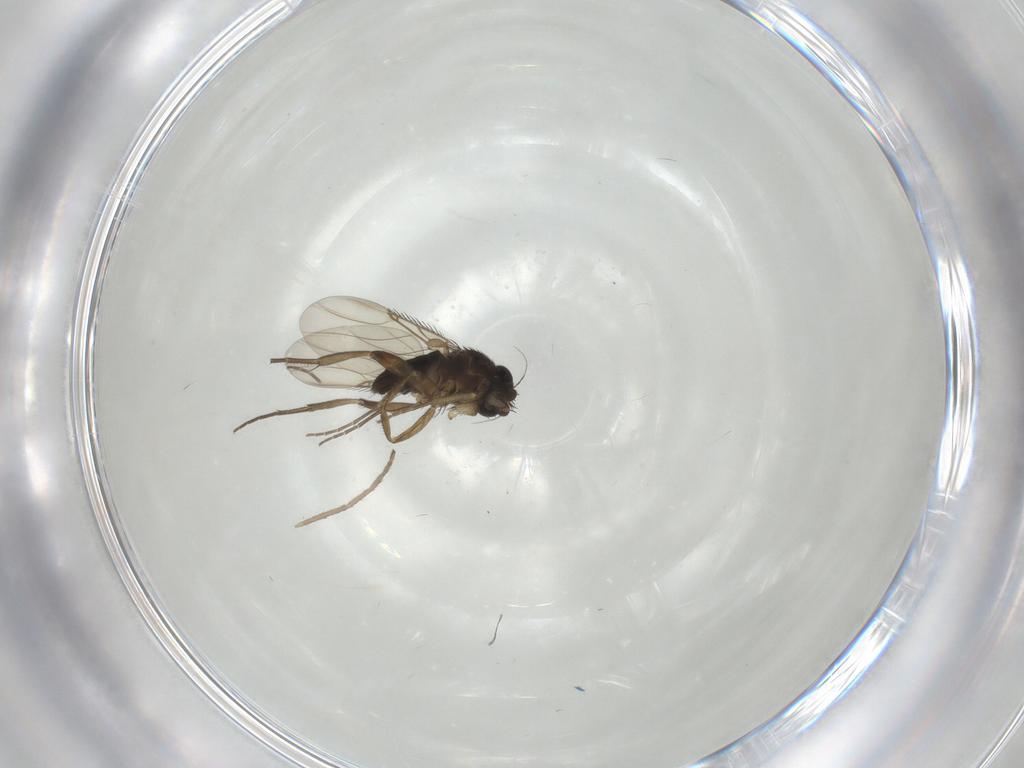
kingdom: Animalia
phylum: Arthropoda
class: Insecta
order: Diptera
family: Phoridae
